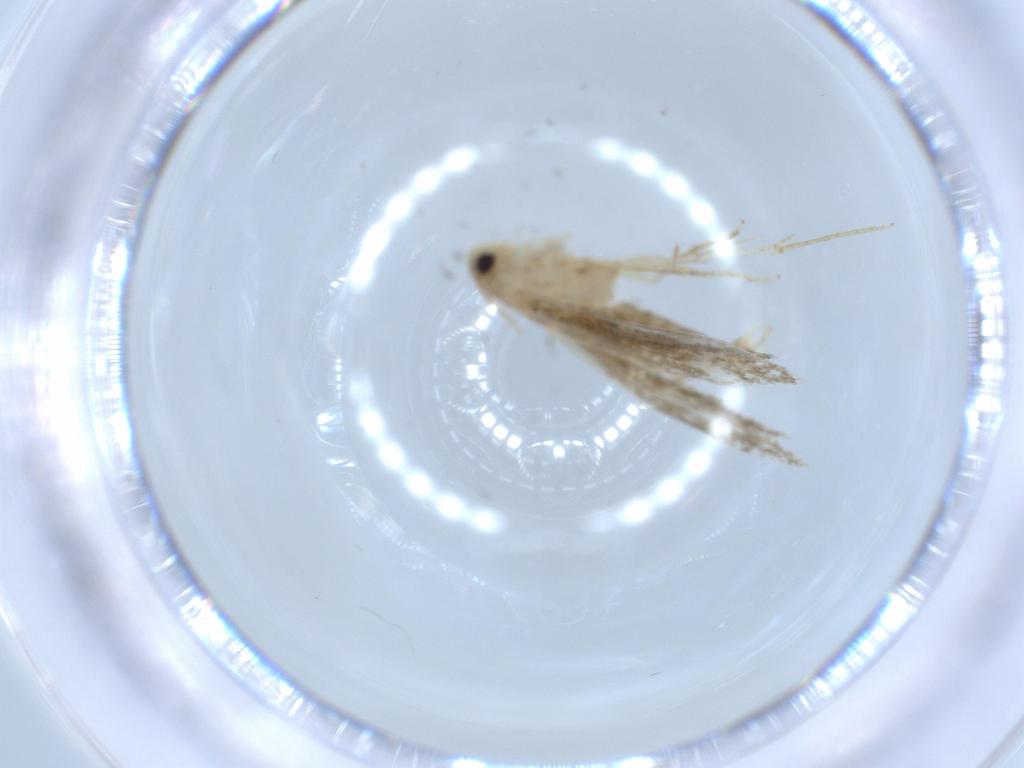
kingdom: Animalia
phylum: Arthropoda
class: Insecta
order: Lepidoptera
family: Tineidae
